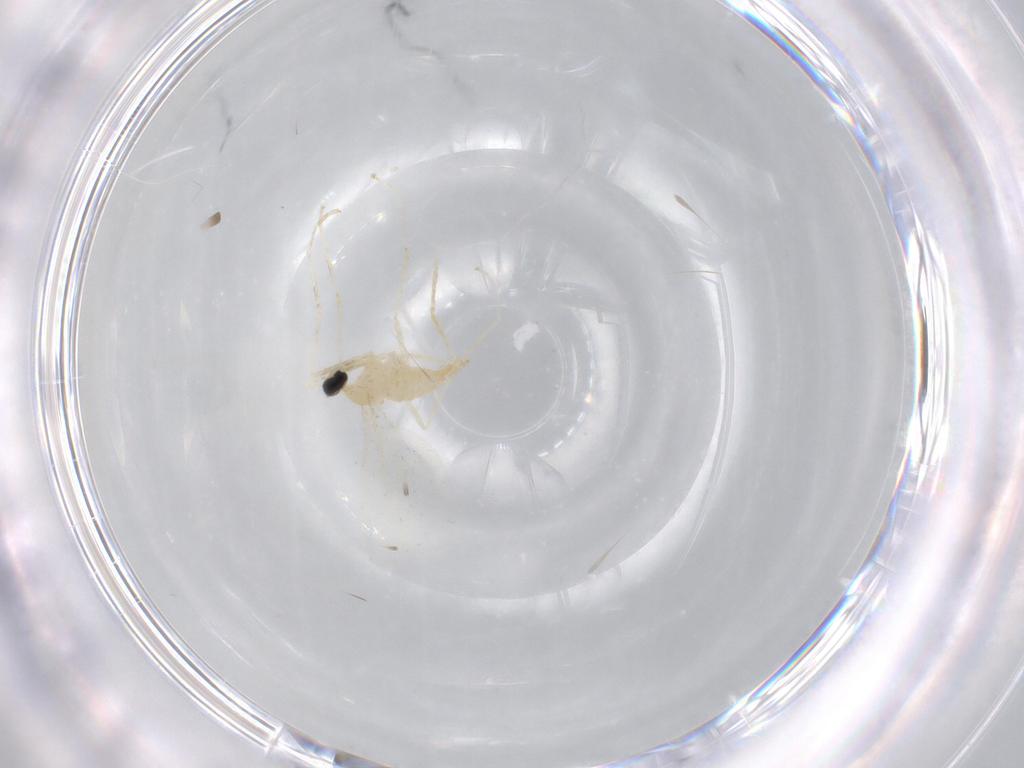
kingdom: Animalia
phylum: Arthropoda
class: Insecta
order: Diptera
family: Cecidomyiidae
